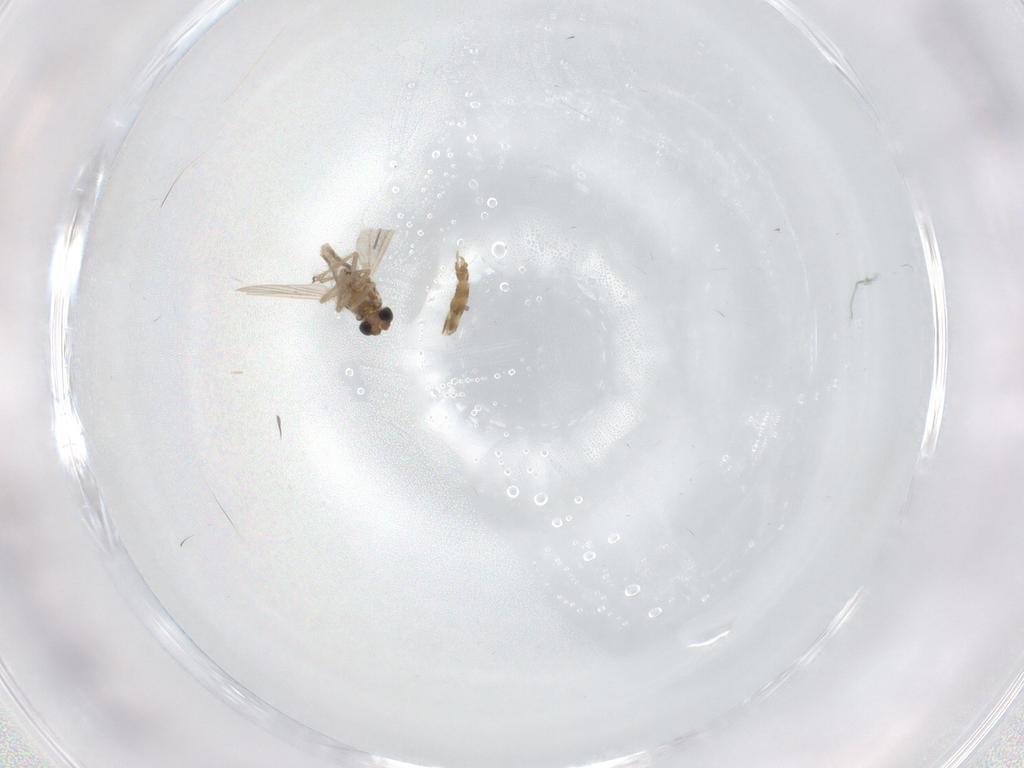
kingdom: Animalia
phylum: Arthropoda
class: Insecta
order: Diptera
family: Chironomidae
